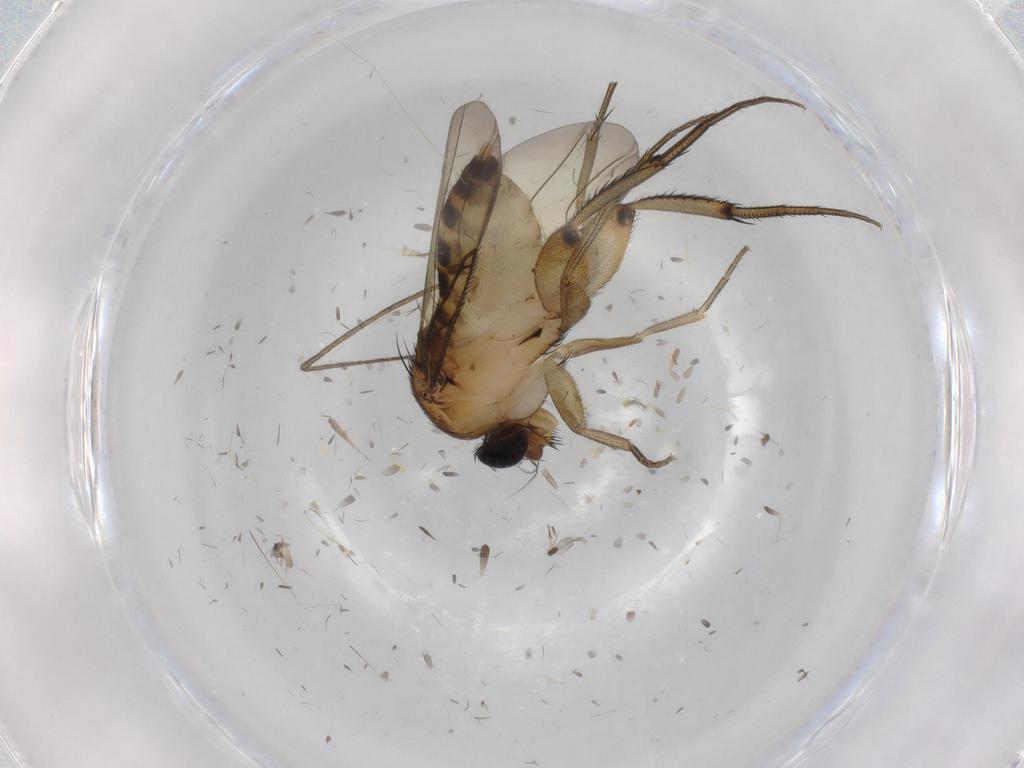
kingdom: Animalia
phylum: Arthropoda
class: Insecta
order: Diptera
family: Phoridae
